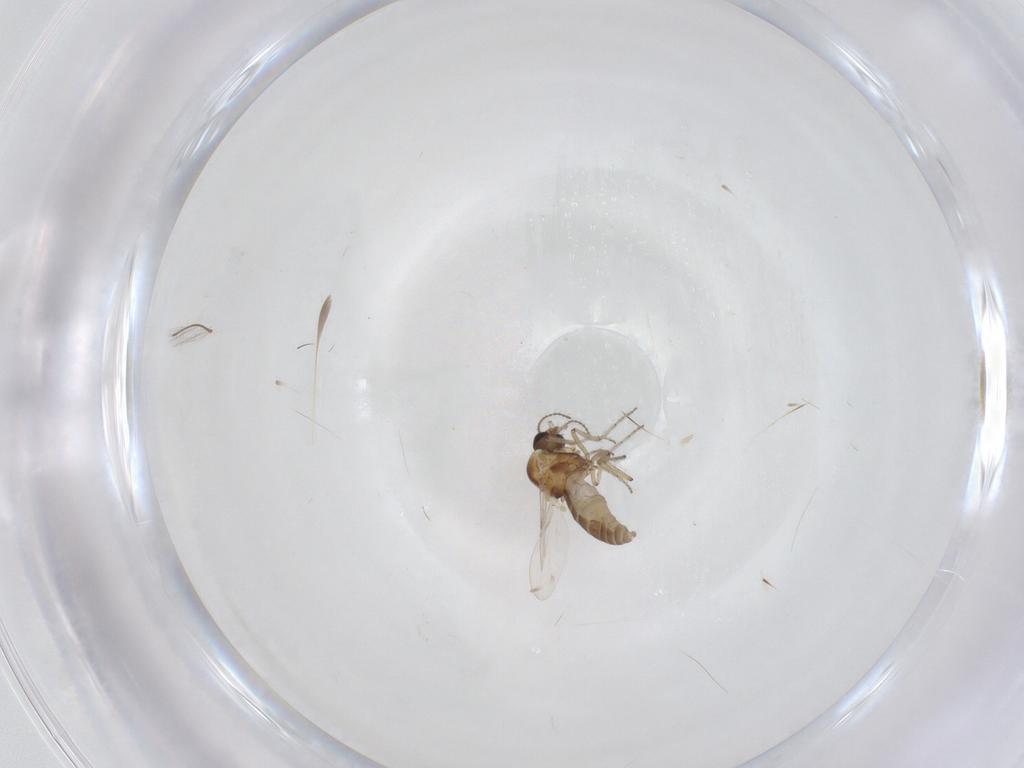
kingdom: Animalia
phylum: Arthropoda
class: Insecta
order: Diptera
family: Ceratopogonidae
